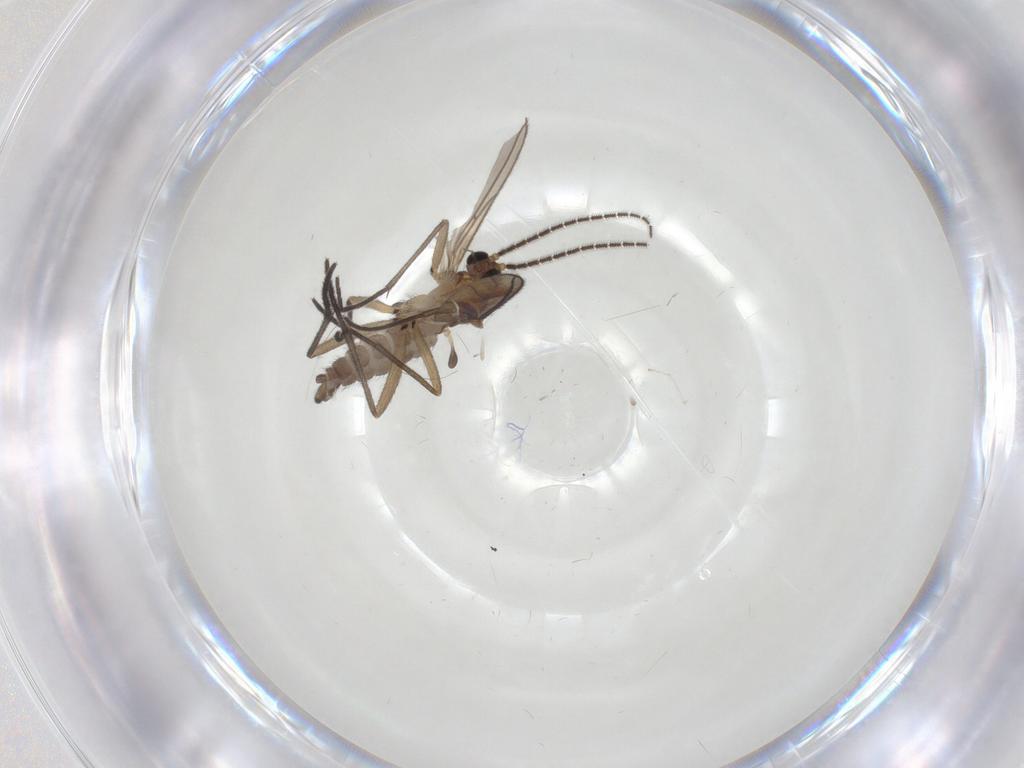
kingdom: Animalia
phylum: Arthropoda
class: Insecta
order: Diptera
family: Sciaridae
